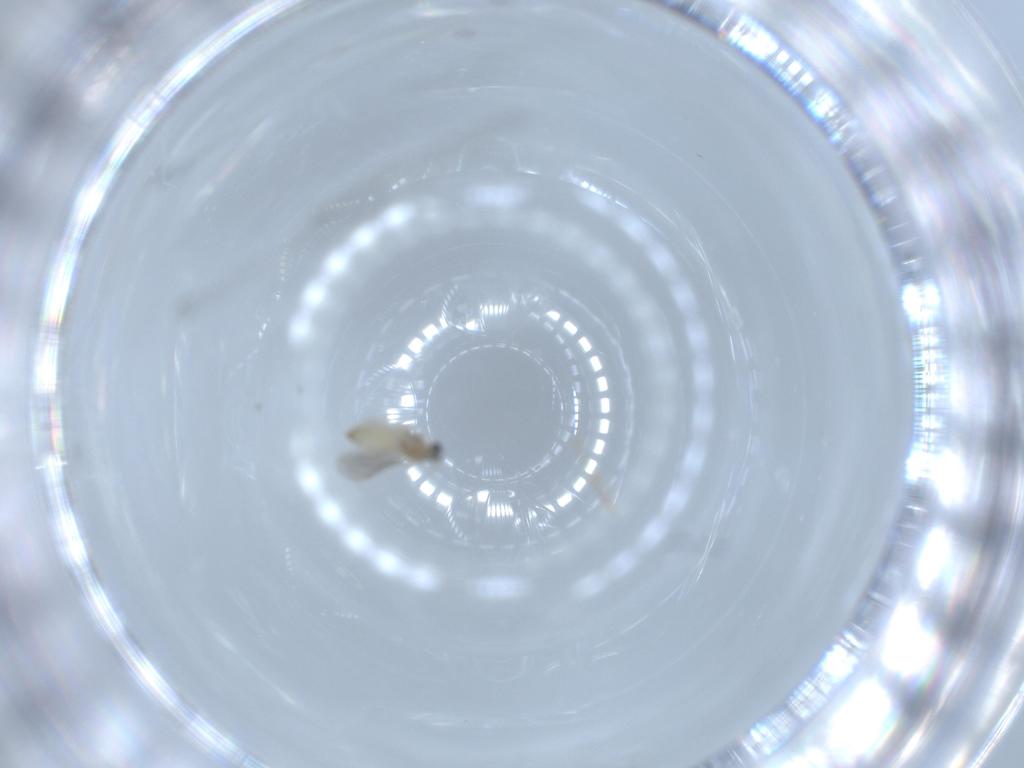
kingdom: Animalia
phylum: Arthropoda
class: Insecta
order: Diptera
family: Cecidomyiidae
